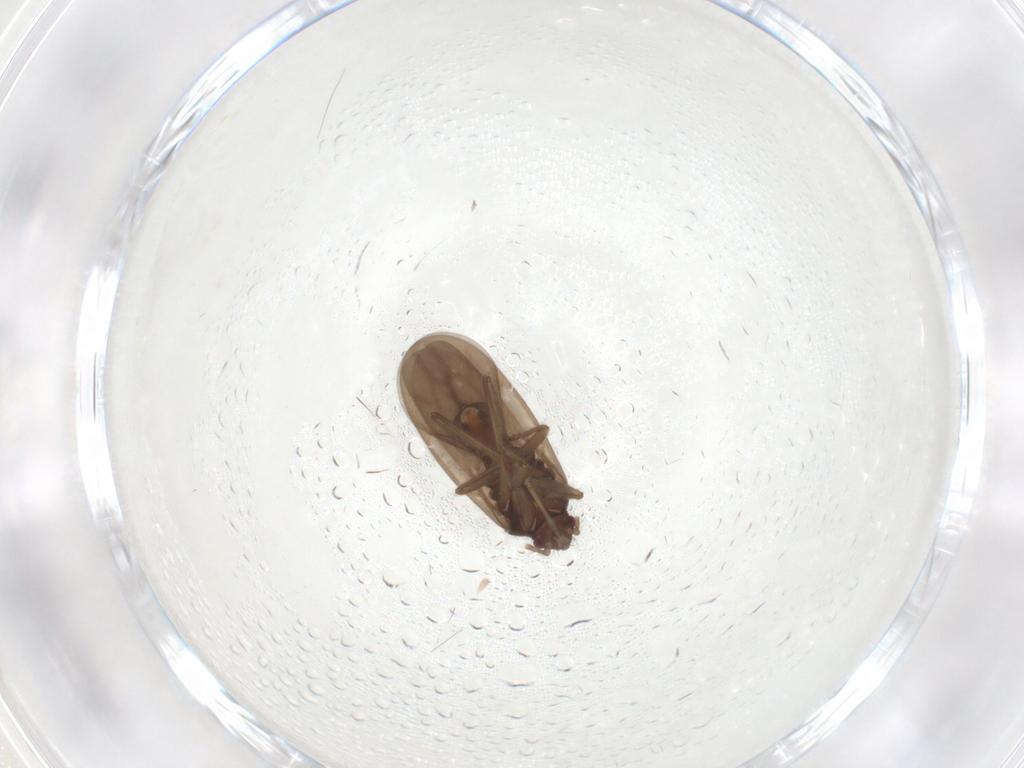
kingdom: Animalia
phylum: Arthropoda
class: Insecta
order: Hemiptera
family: Ceratocombidae
